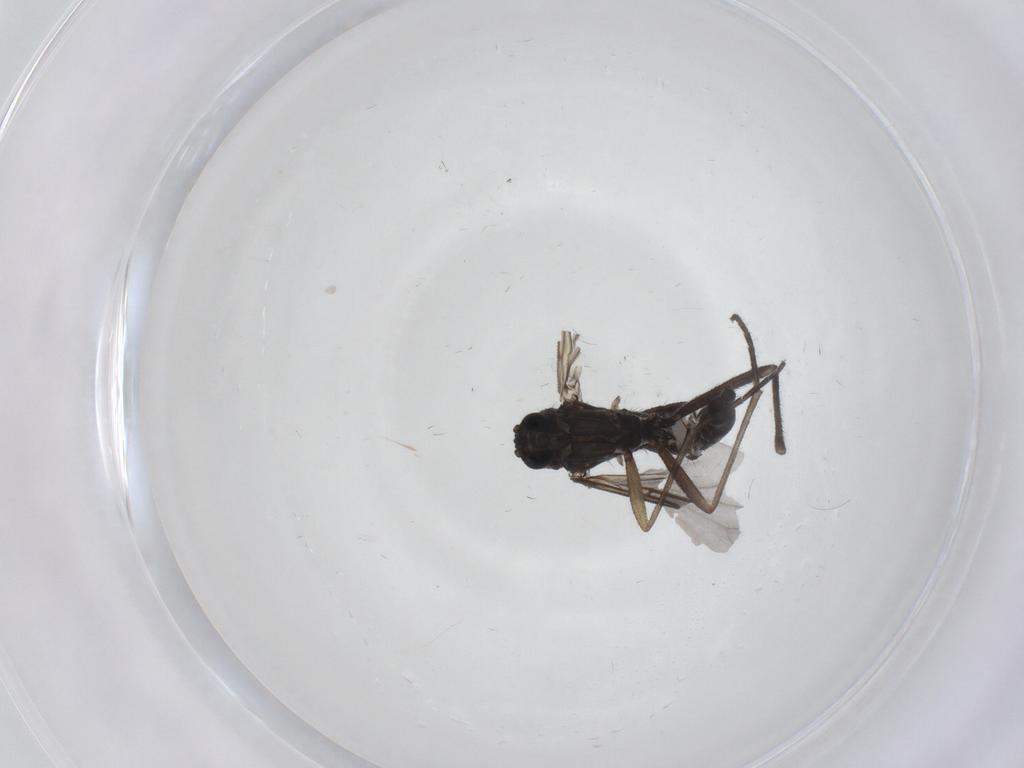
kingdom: Animalia
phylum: Arthropoda
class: Insecta
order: Diptera
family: Sciaridae
